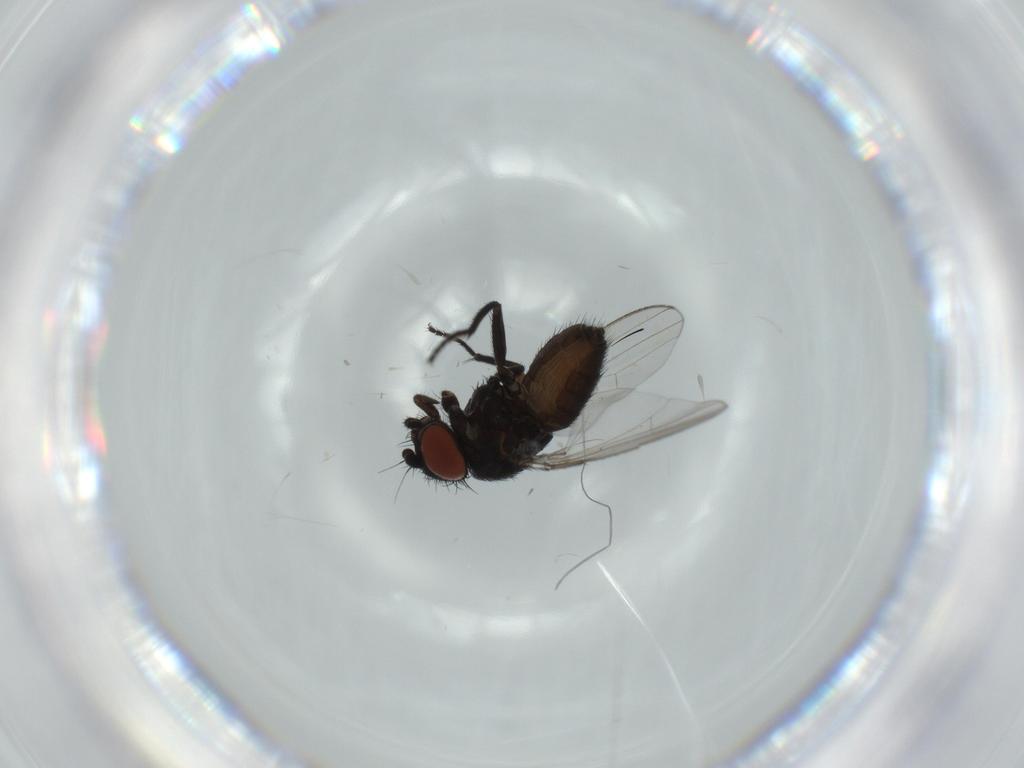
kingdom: Animalia
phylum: Arthropoda
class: Insecta
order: Diptera
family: Milichiidae
